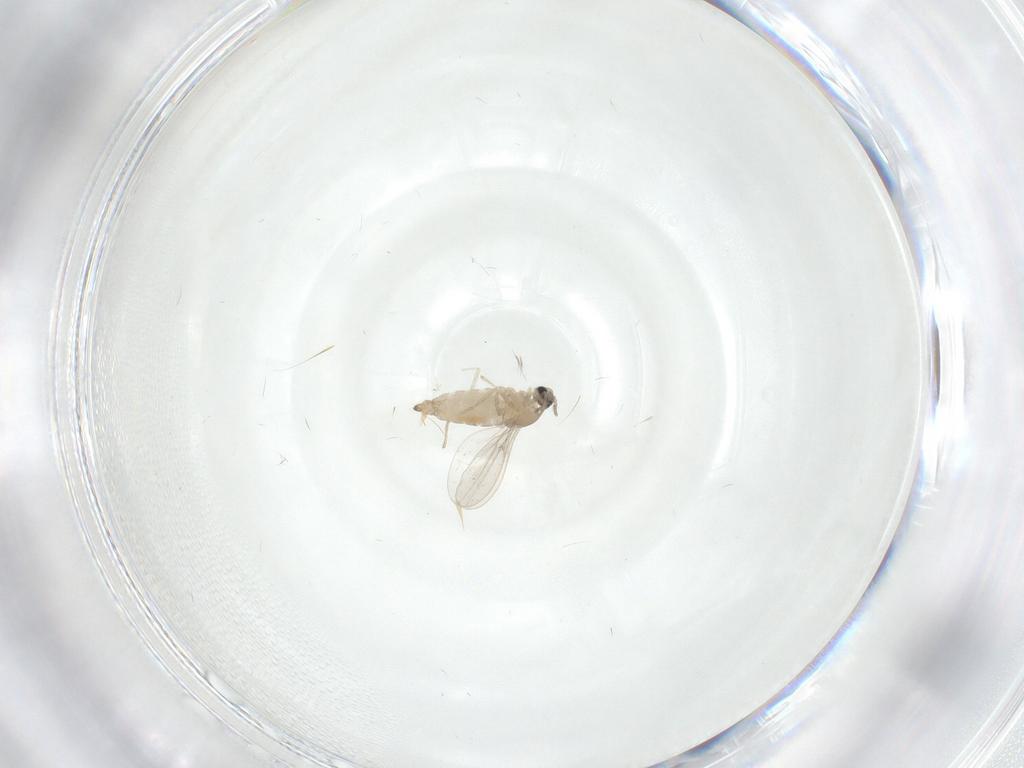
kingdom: Animalia
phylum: Arthropoda
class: Insecta
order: Diptera
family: Cecidomyiidae
